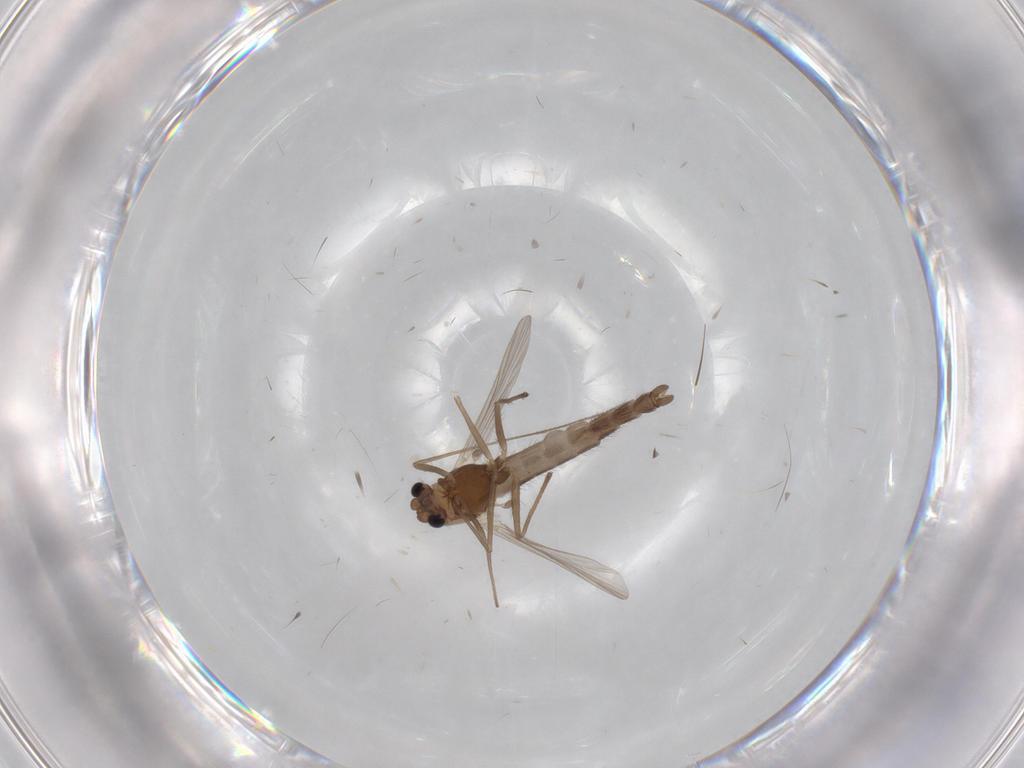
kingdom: Animalia
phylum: Arthropoda
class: Insecta
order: Diptera
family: Chironomidae
